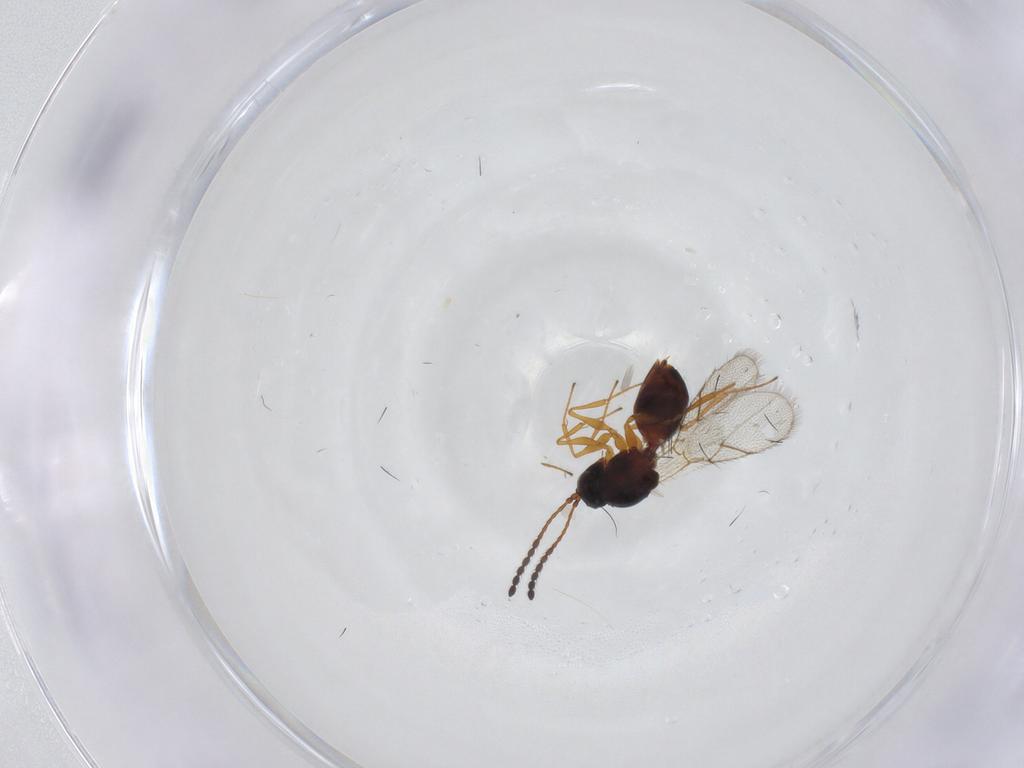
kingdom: Animalia
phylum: Arthropoda
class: Insecta
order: Hymenoptera
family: Figitidae
